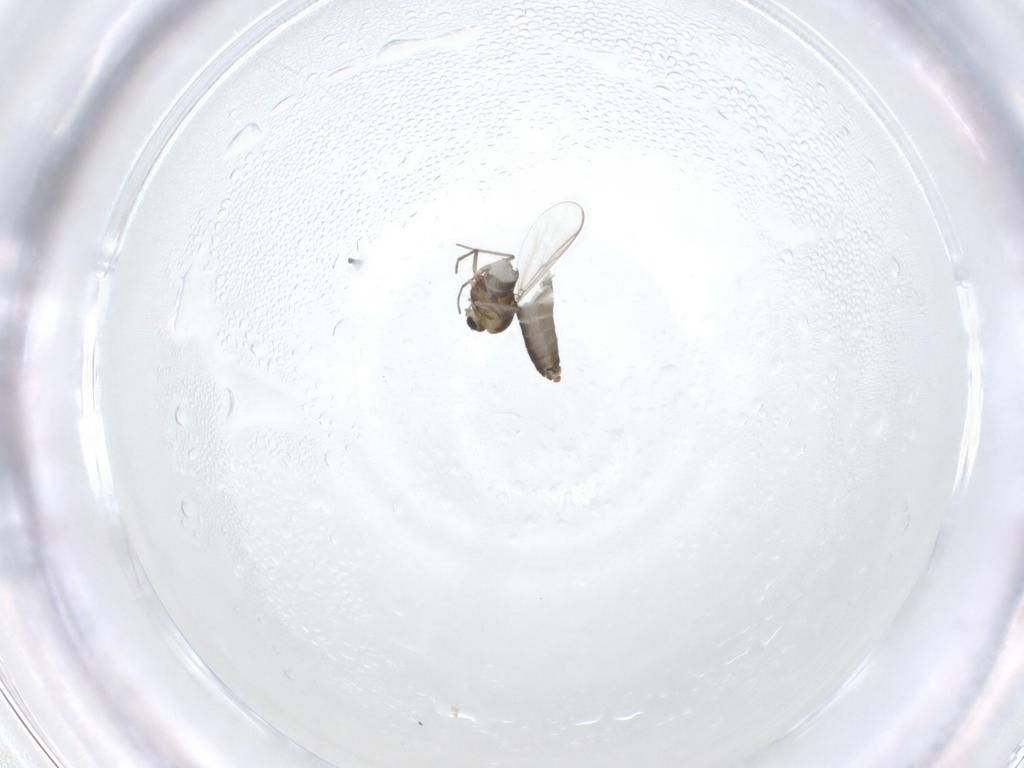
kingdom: Animalia
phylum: Arthropoda
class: Insecta
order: Diptera
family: Chironomidae
